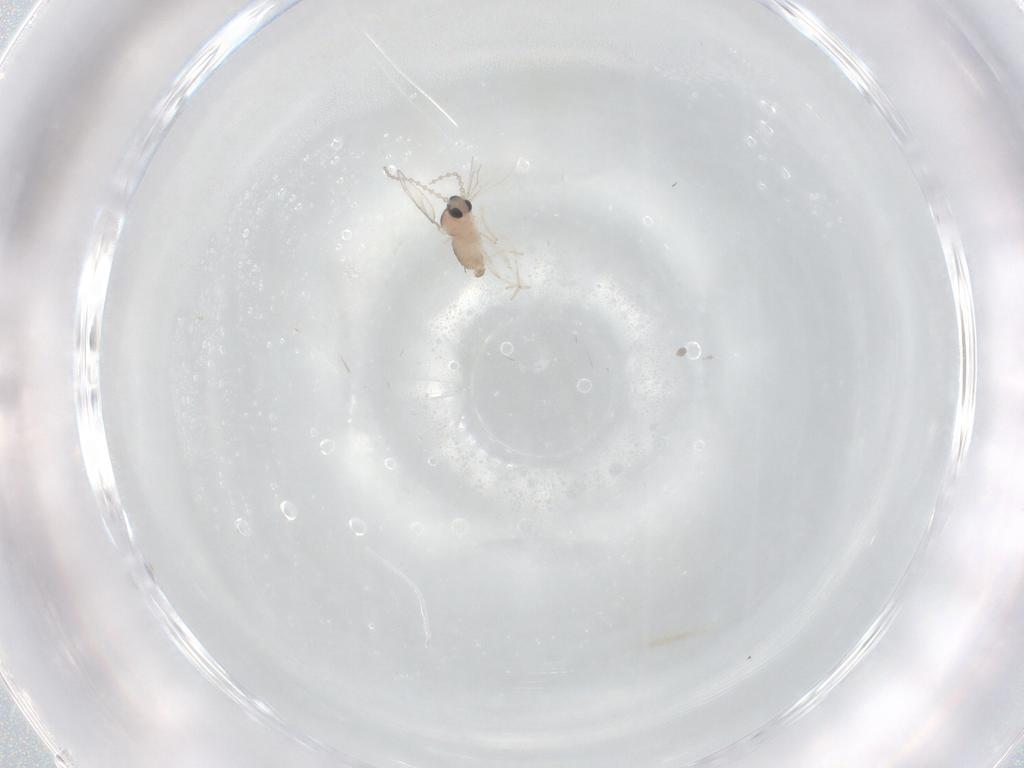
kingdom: Animalia
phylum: Arthropoda
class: Insecta
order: Diptera
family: Cecidomyiidae
